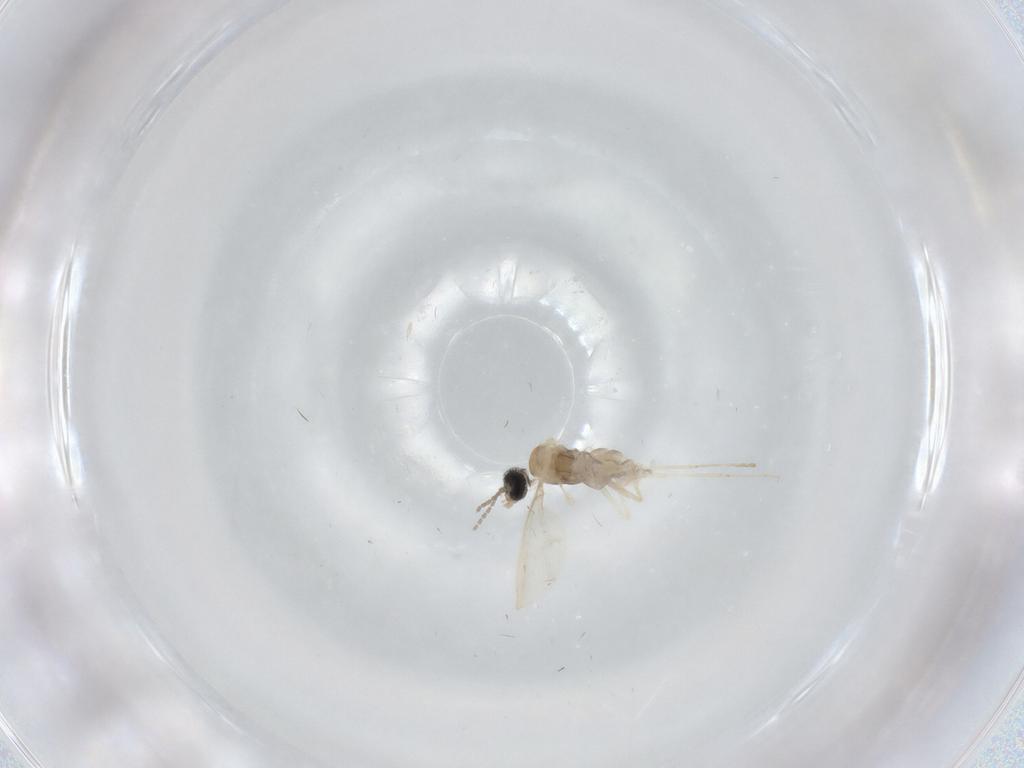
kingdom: Animalia
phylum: Arthropoda
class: Insecta
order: Diptera
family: Cecidomyiidae
